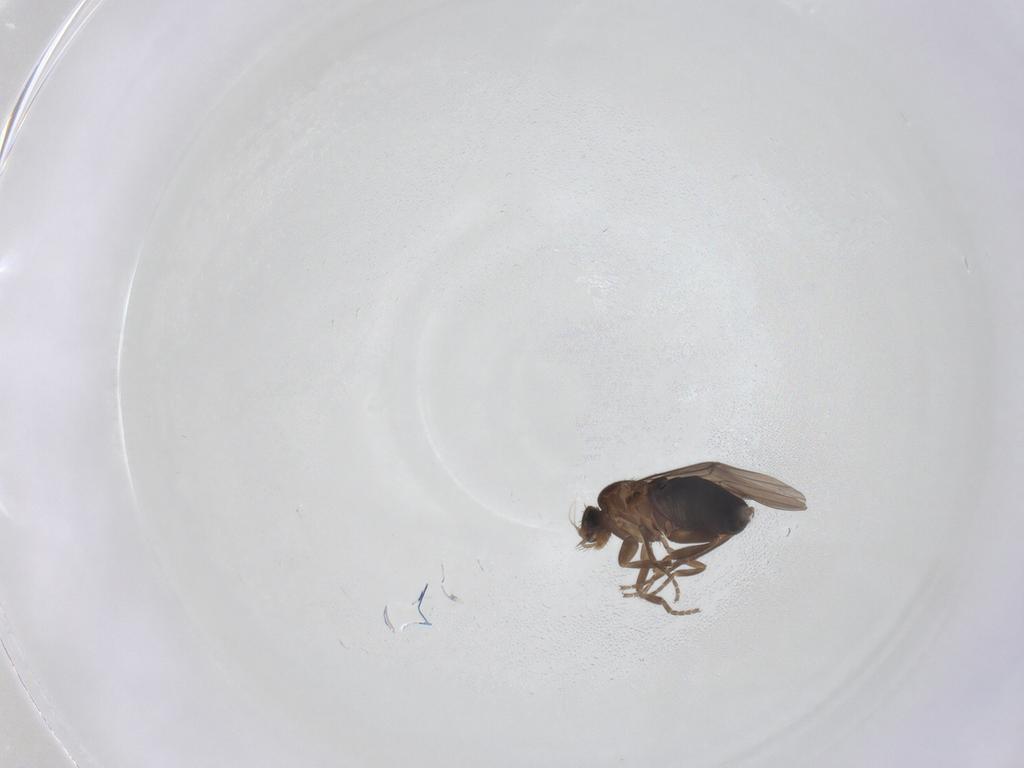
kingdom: Animalia
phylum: Arthropoda
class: Insecta
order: Diptera
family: Phoridae
